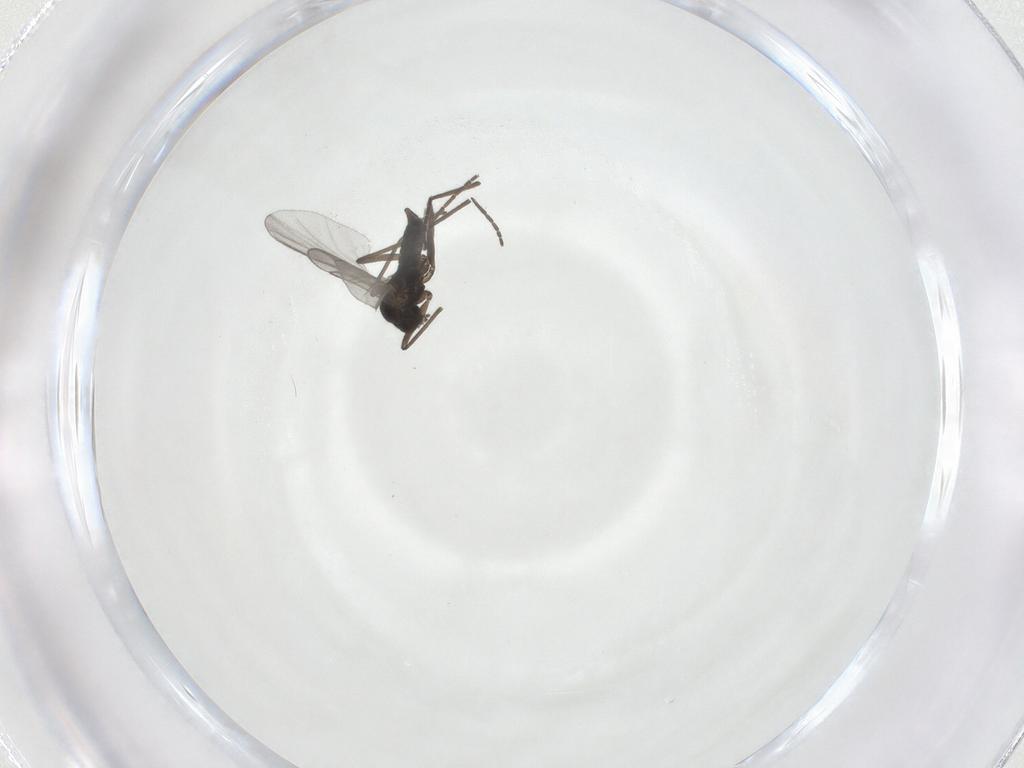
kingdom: Animalia
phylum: Arthropoda
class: Insecta
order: Diptera
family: Sciaridae
